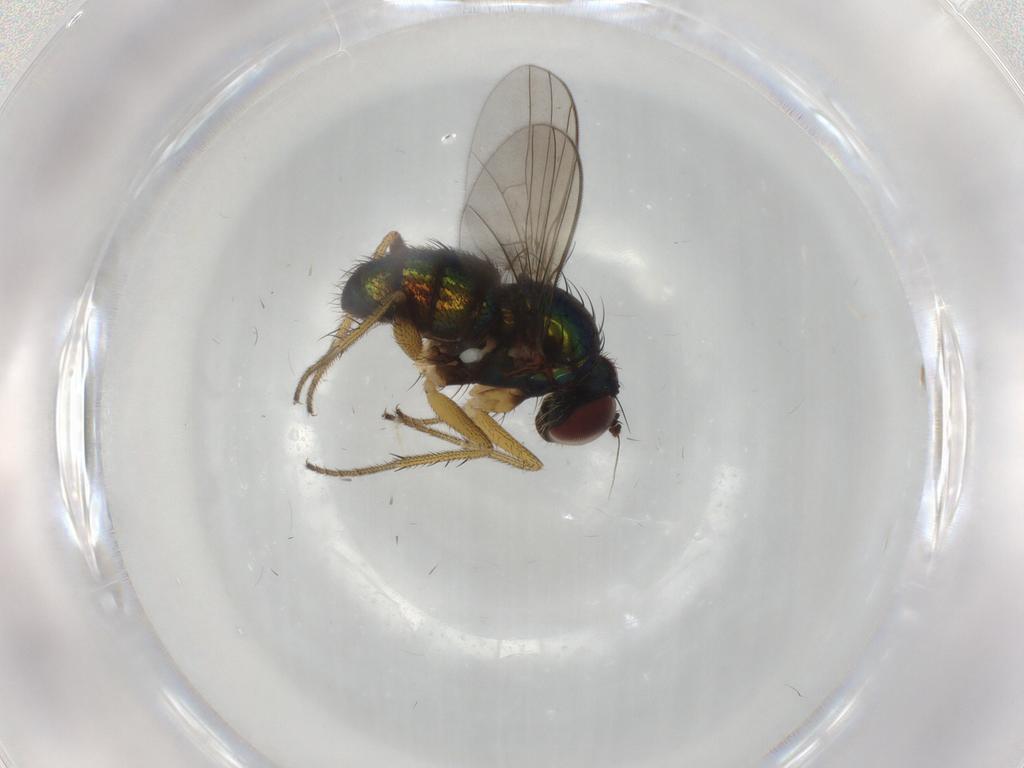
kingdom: Animalia
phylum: Arthropoda
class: Insecta
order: Diptera
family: Dolichopodidae
